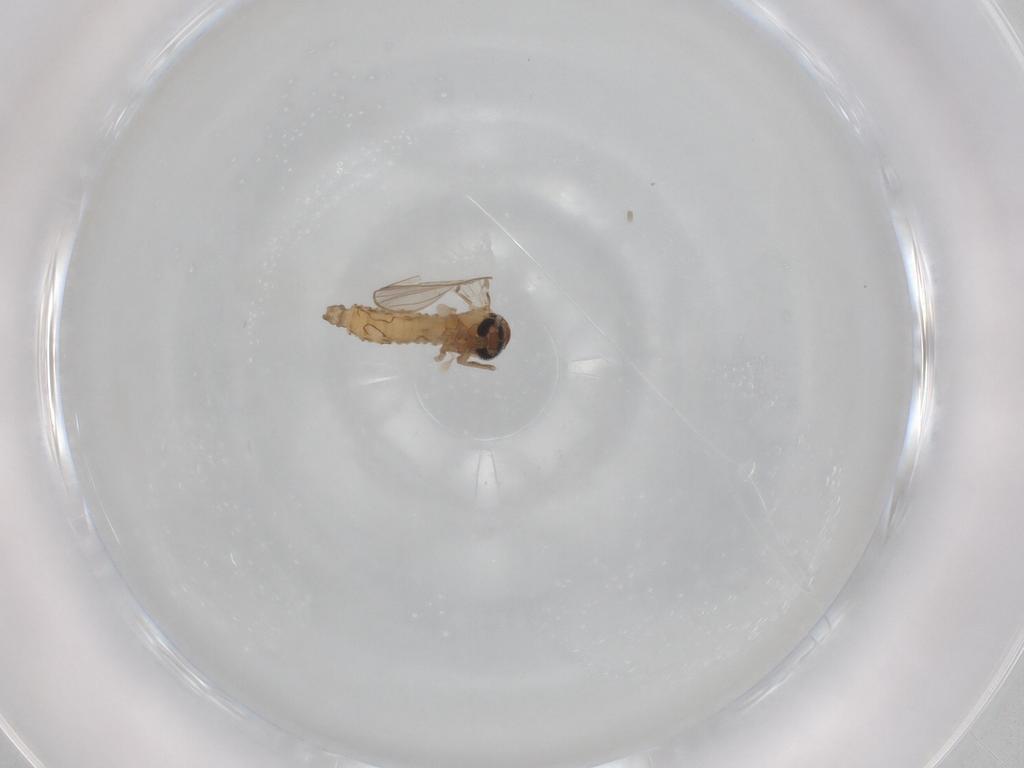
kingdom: Animalia
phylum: Arthropoda
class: Insecta
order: Diptera
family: Psychodidae
